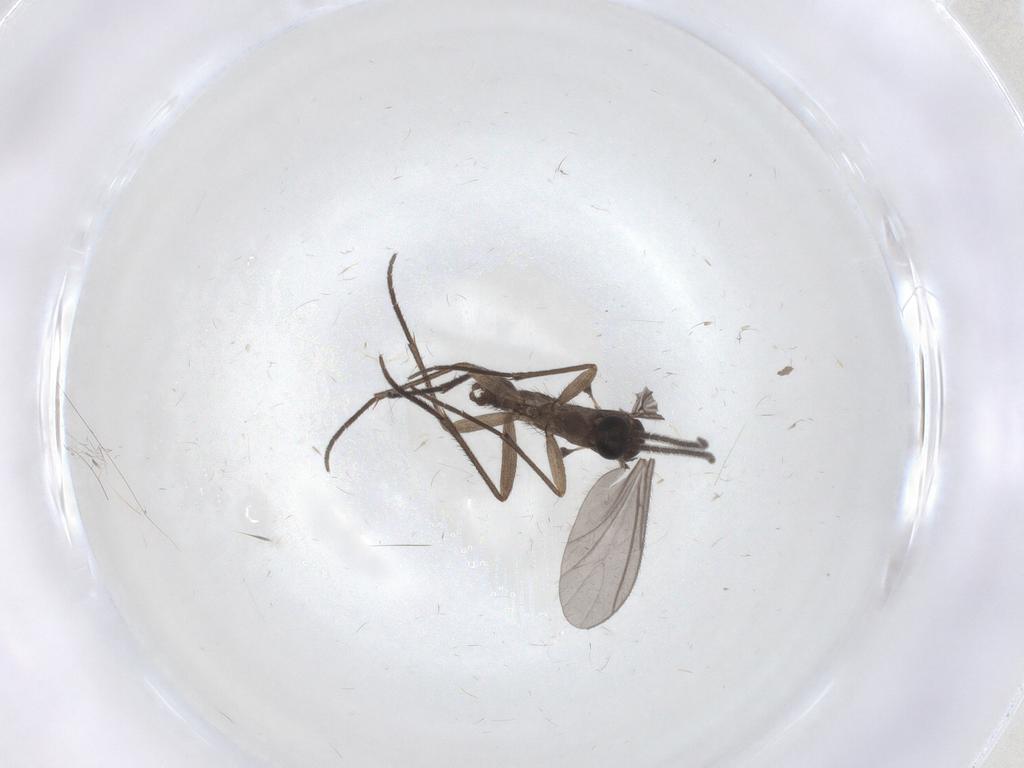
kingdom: Animalia
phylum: Arthropoda
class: Insecta
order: Diptera
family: Sciaridae
